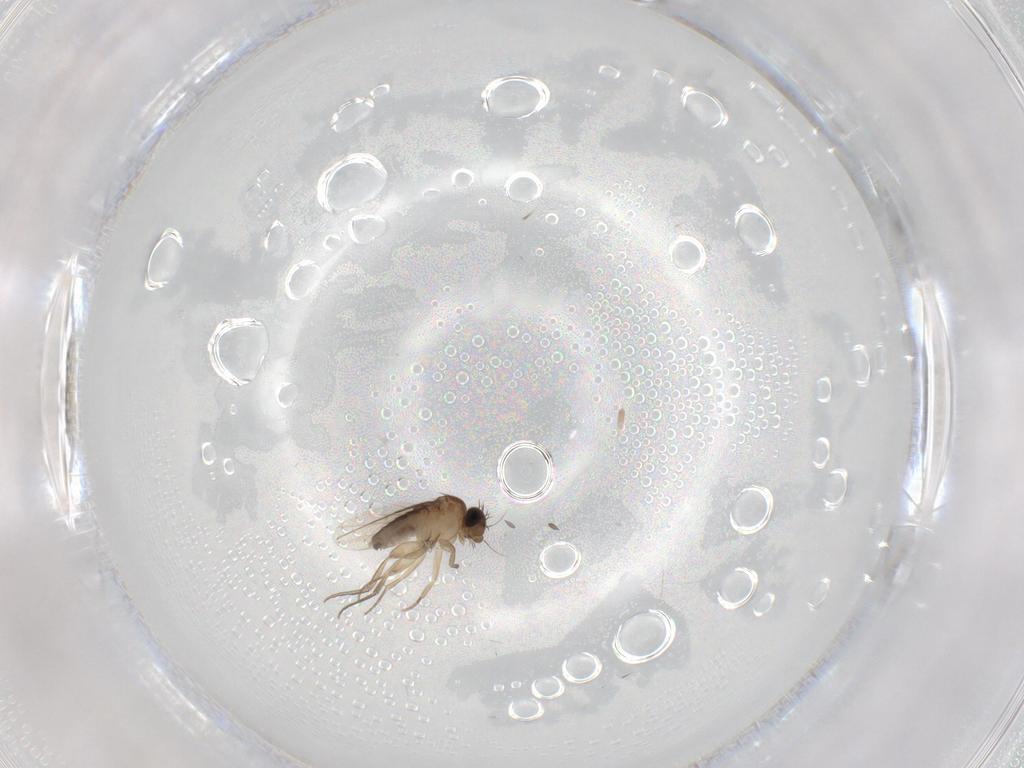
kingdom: Animalia
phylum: Arthropoda
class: Insecta
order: Diptera
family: Phoridae
